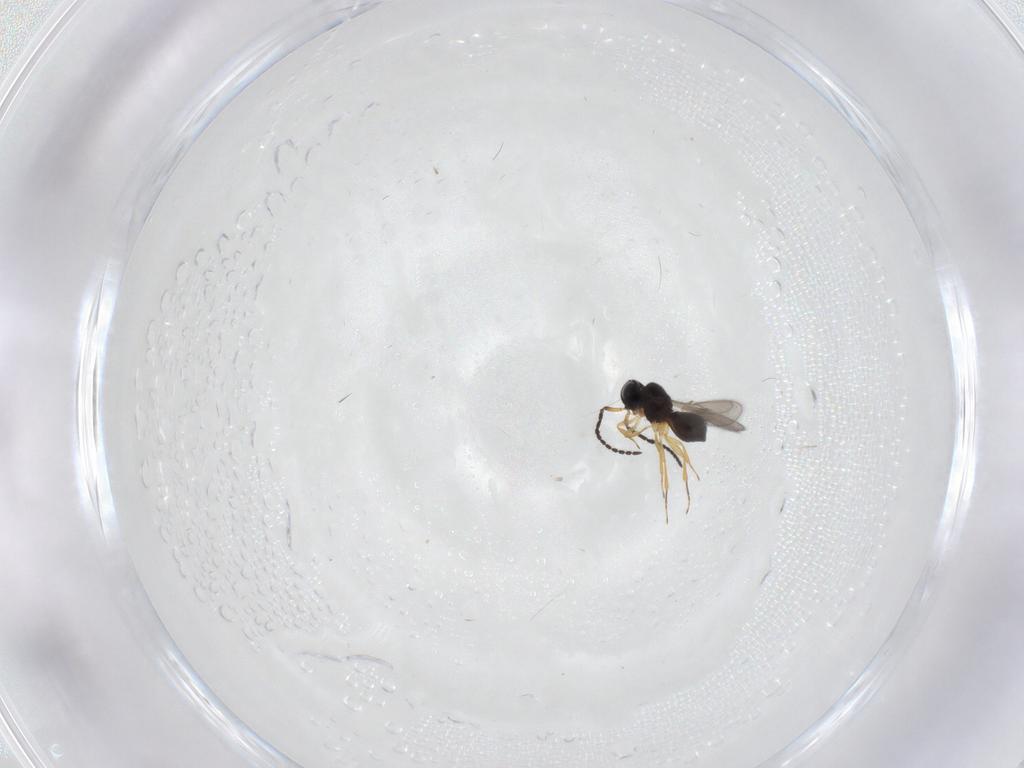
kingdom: Animalia
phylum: Arthropoda
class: Insecta
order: Hymenoptera
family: Scelionidae
